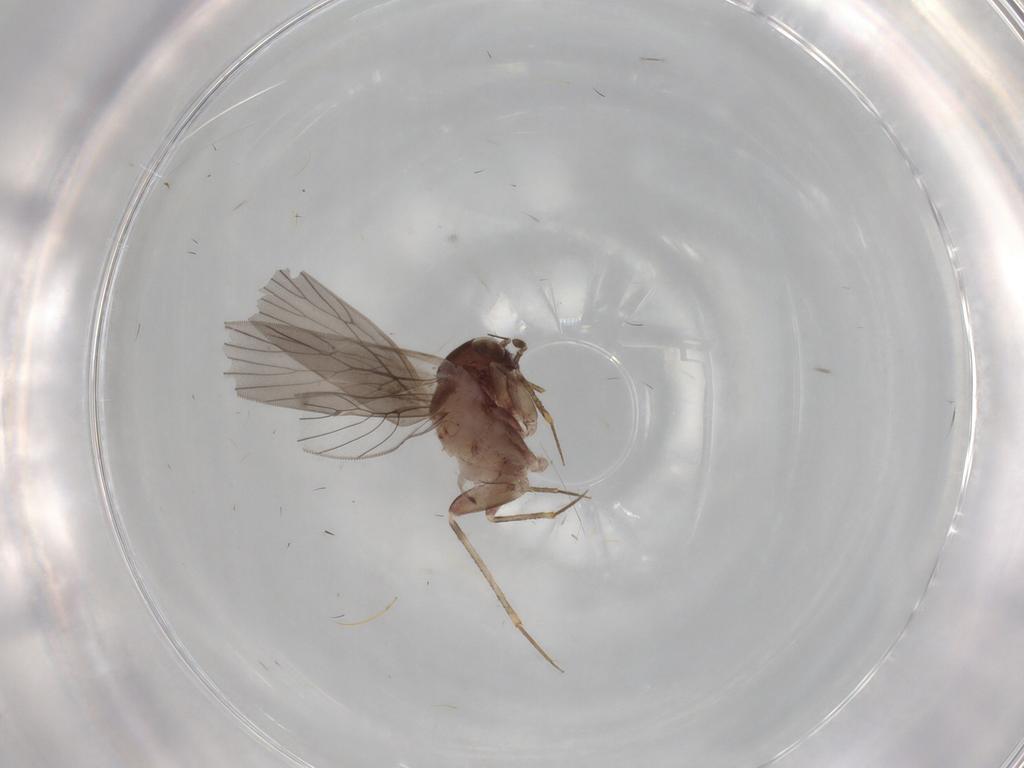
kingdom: Animalia
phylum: Arthropoda
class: Insecta
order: Psocodea
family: Lepidopsocidae
